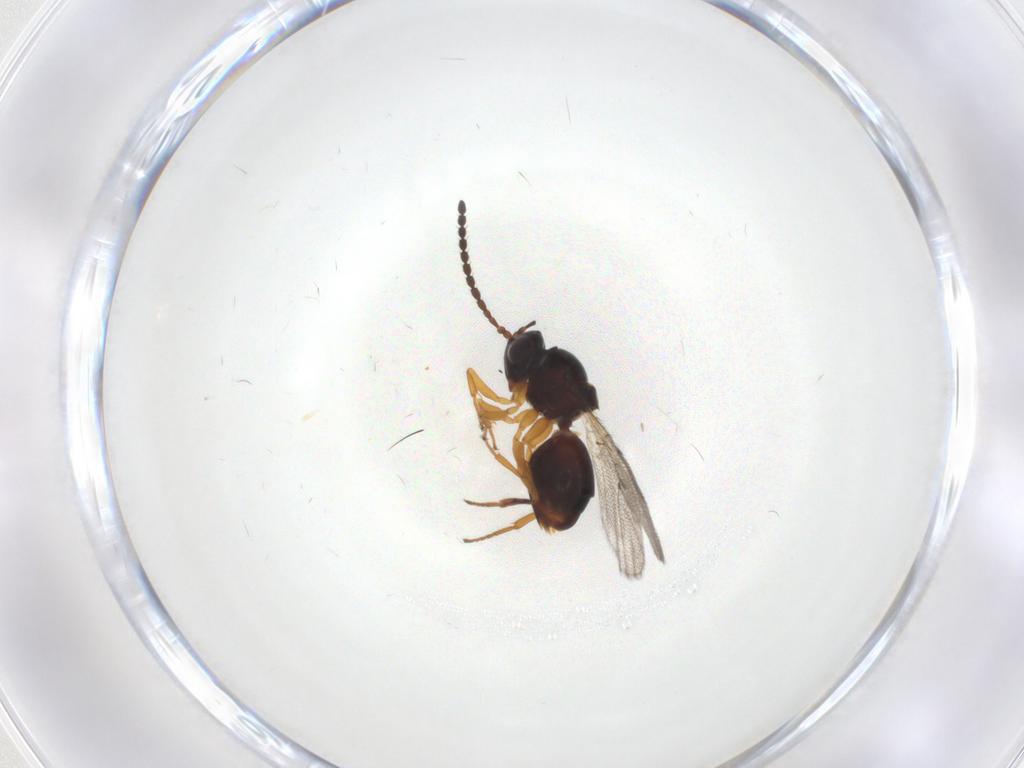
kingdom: Animalia
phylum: Arthropoda
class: Insecta
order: Hymenoptera
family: Figitidae
